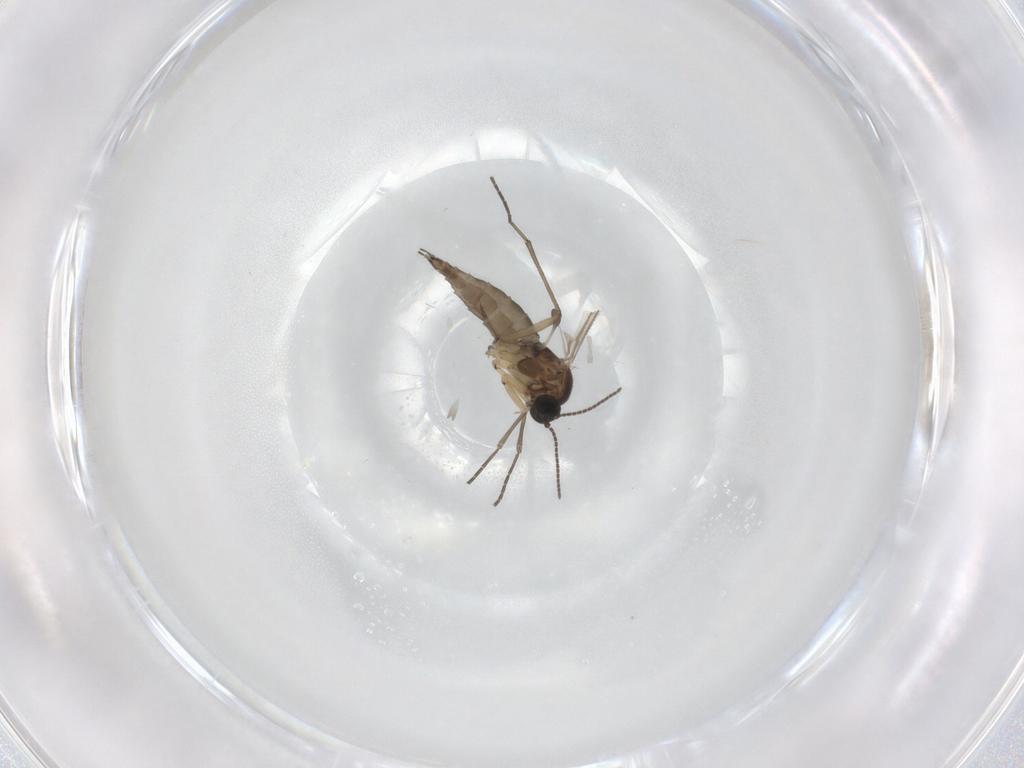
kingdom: Animalia
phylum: Arthropoda
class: Insecta
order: Diptera
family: Sciaridae
